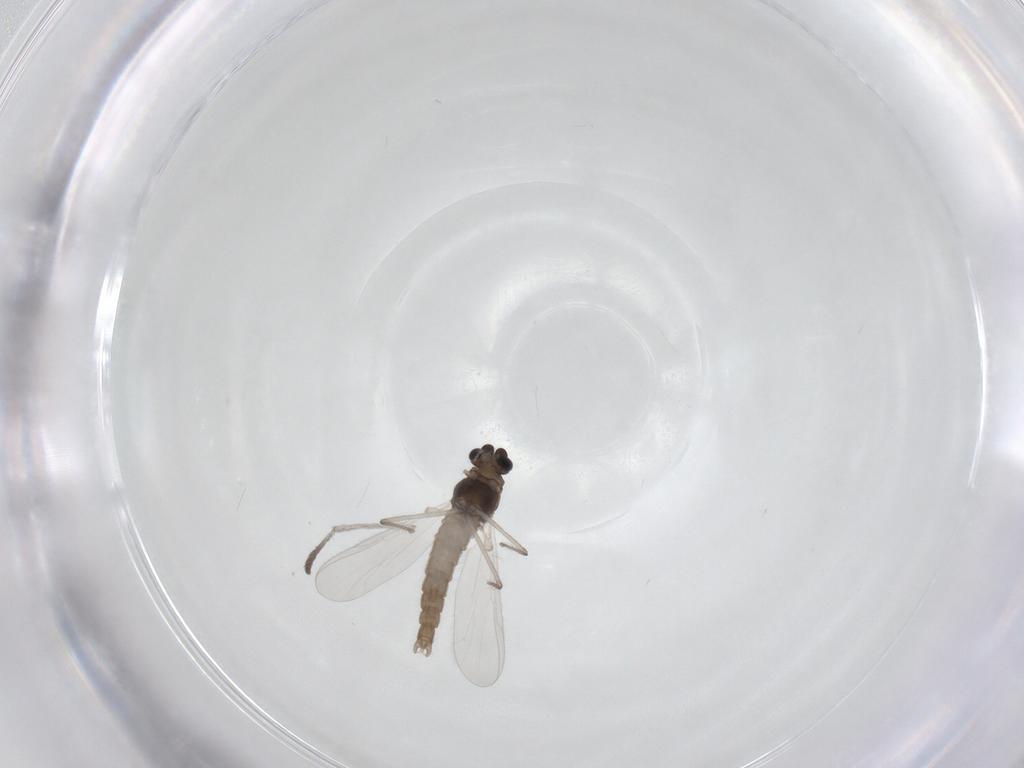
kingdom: Animalia
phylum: Arthropoda
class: Insecta
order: Diptera
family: Chironomidae
